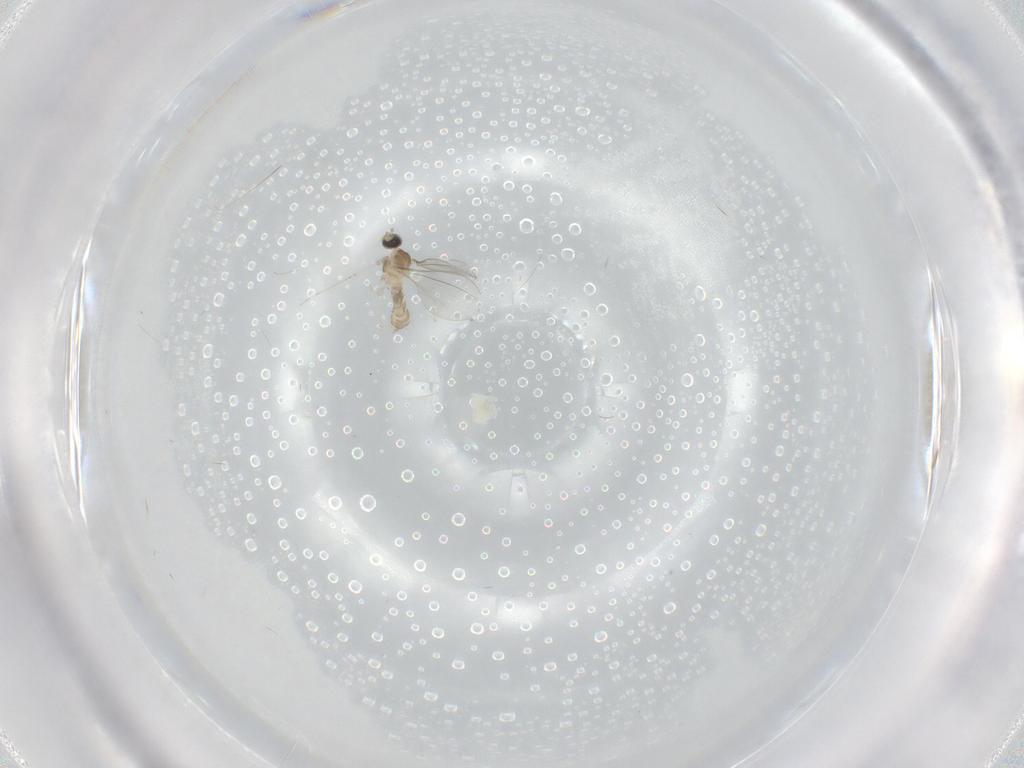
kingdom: Animalia
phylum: Arthropoda
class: Insecta
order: Diptera
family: Cecidomyiidae
